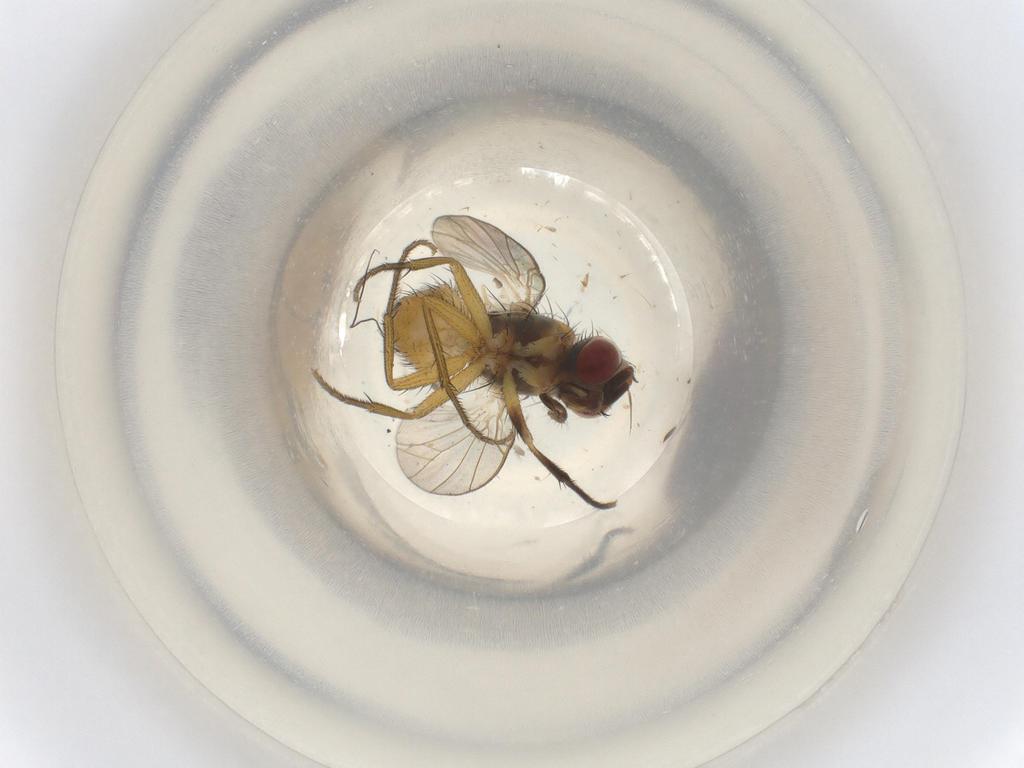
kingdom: Animalia
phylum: Arthropoda
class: Insecta
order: Diptera
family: Muscidae
